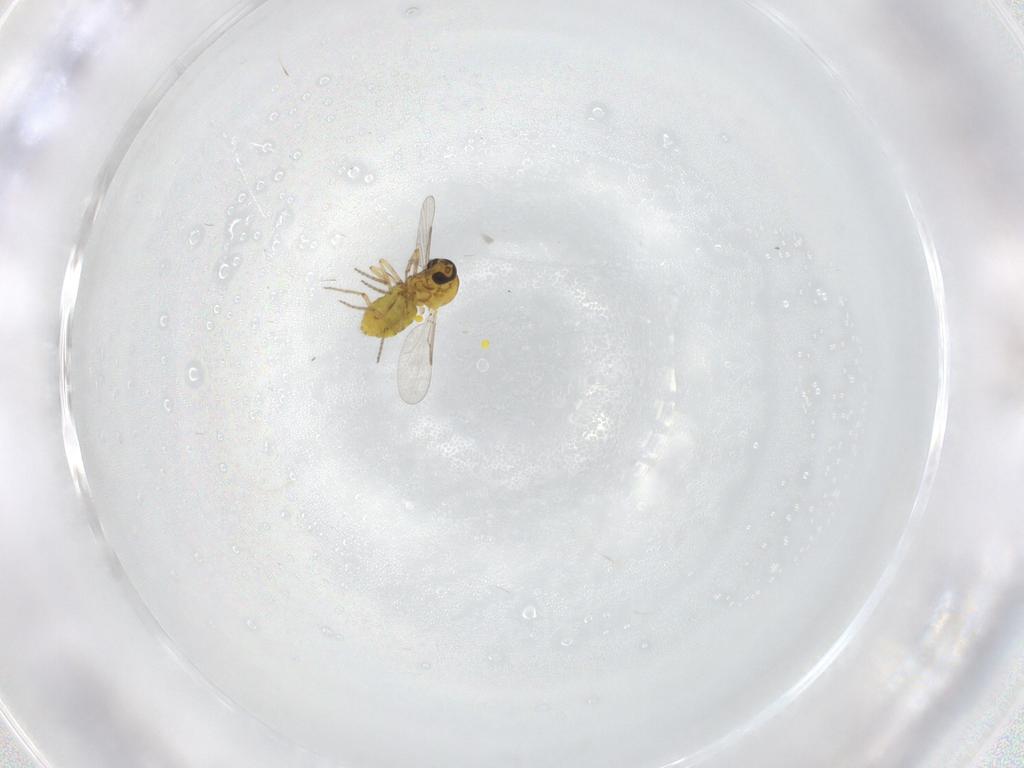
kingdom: Animalia
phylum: Arthropoda
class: Insecta
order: Diptera
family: Ceratopogonidae
